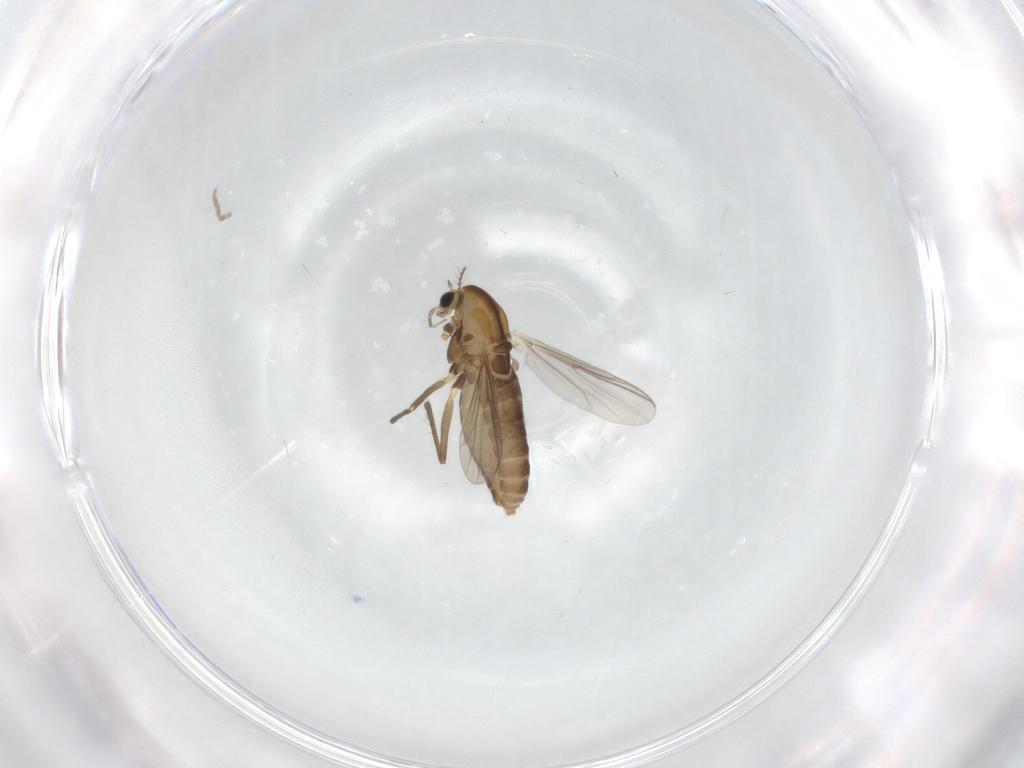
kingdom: Animalia
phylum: Arthropoda
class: Insecta
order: Diptera
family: Chironomidae
